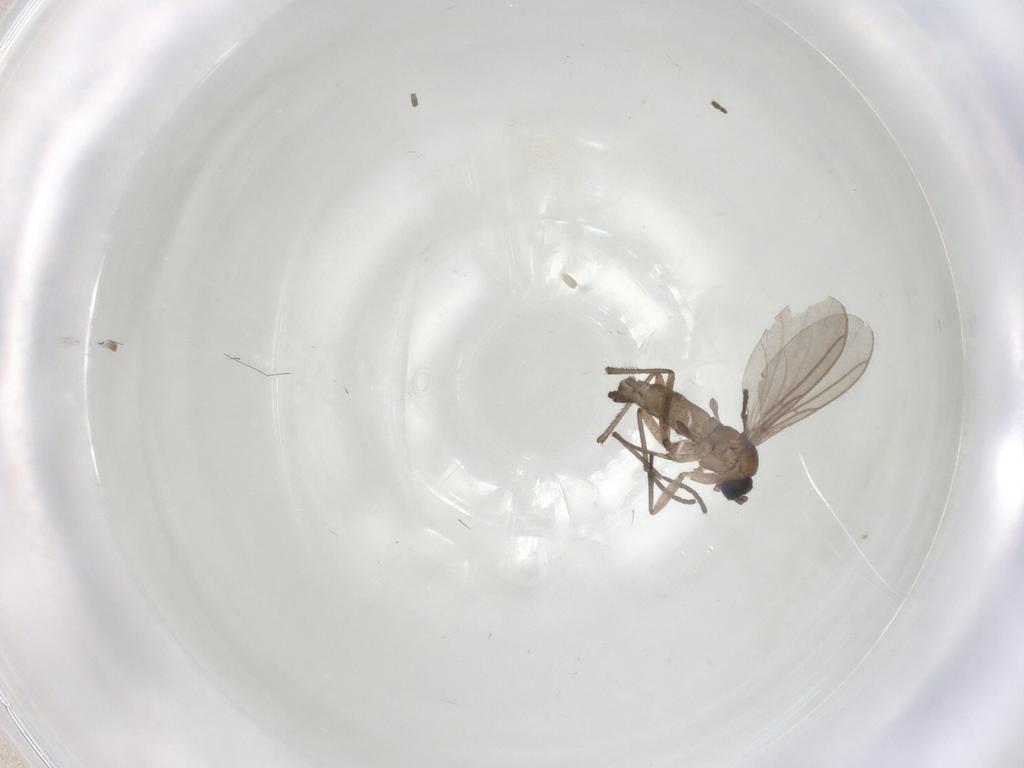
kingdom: Animalia
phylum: Arthropoda
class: Insecta
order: Diptera
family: Sciaridae
